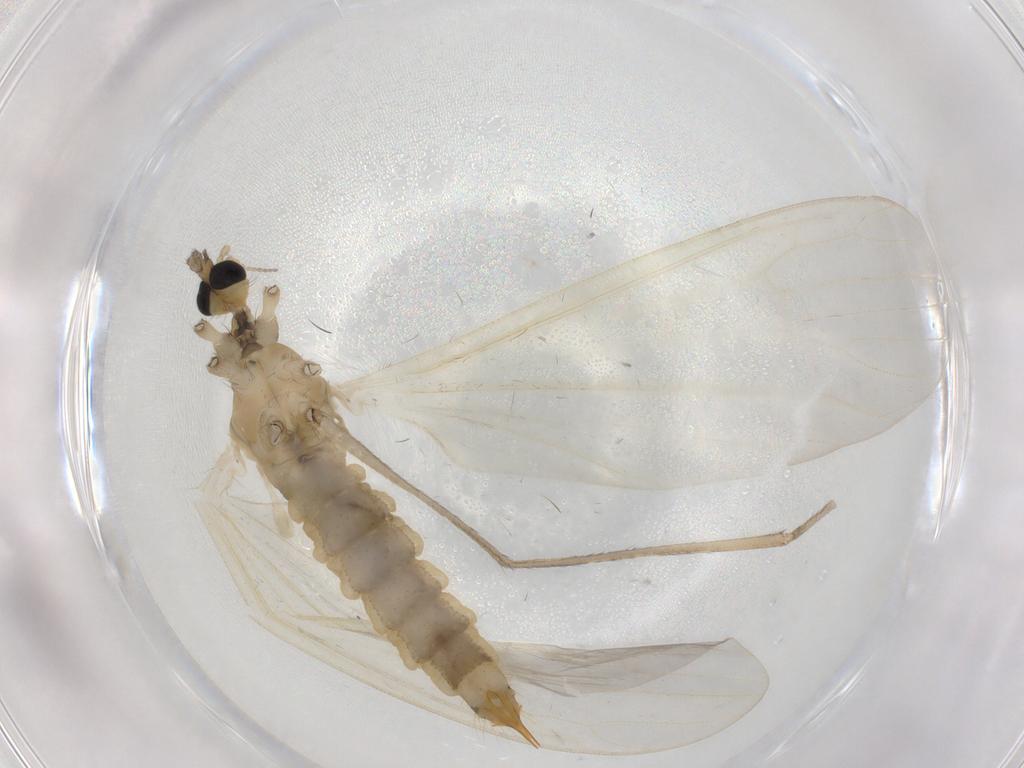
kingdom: Animalia
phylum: Arthropoda
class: Insecta
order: Diptera
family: Limoniidae
